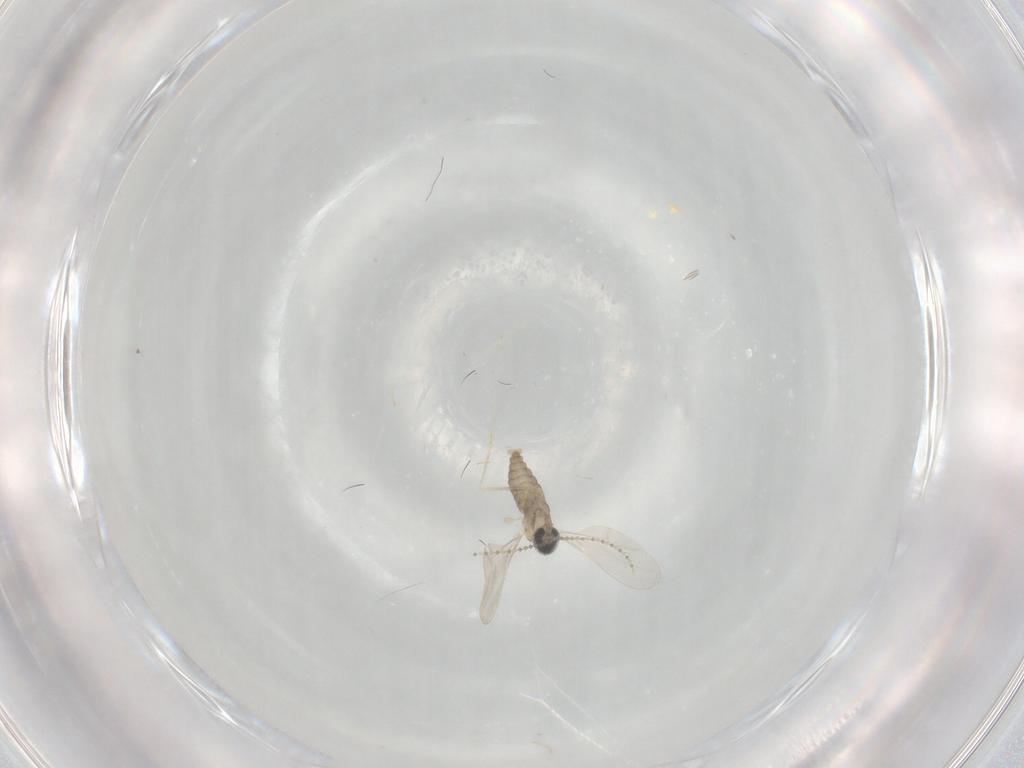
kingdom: Animalia
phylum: Arthropoda
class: Insecta
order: Diptera
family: Cecidomyiidae
